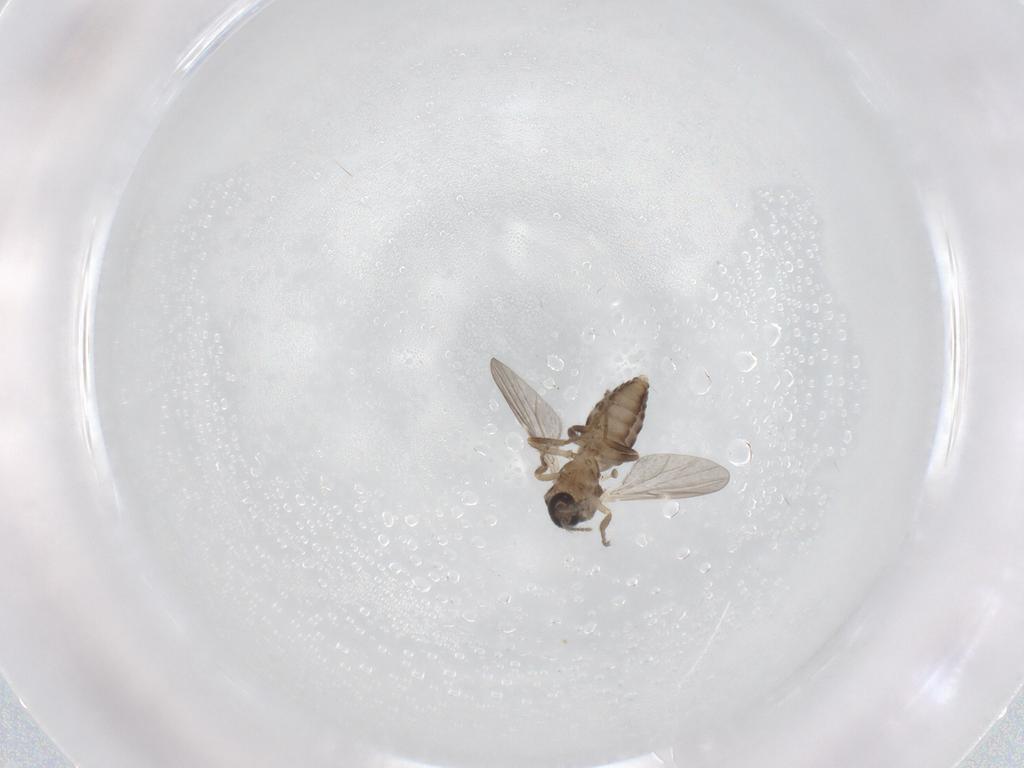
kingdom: Animalia
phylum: Arthropoda
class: Insecta
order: Diptera
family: Ceratopogonidae
